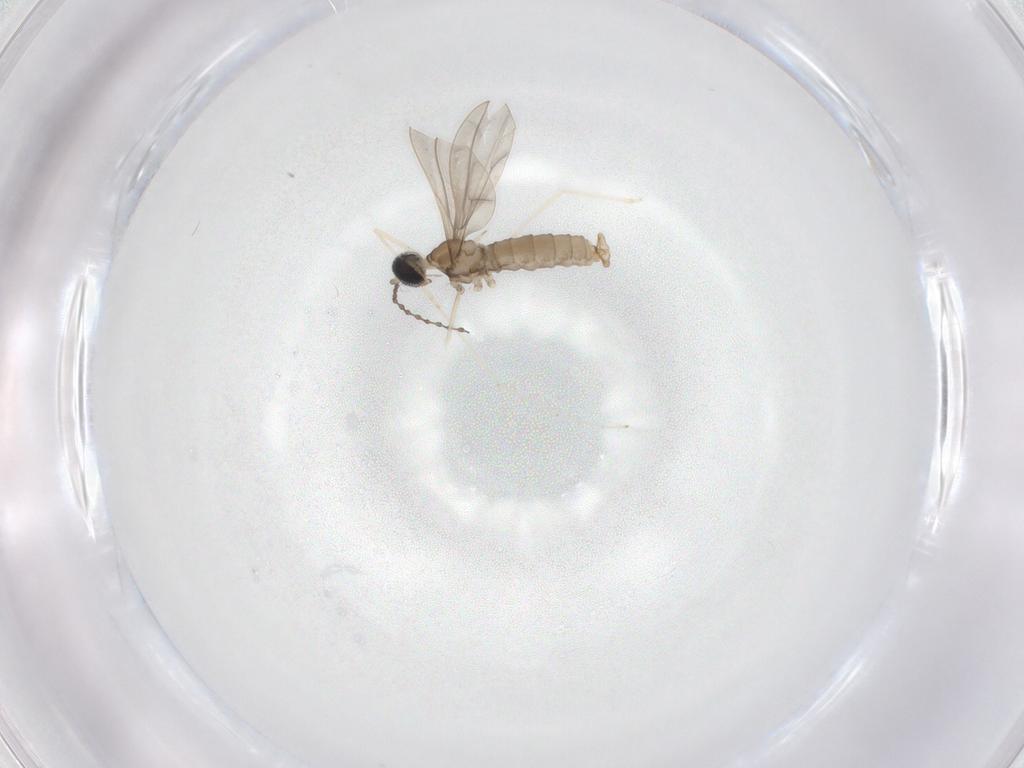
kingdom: Animalia
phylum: Arthropoda
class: Insecta
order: Diptera
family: Cecidomyiidae
